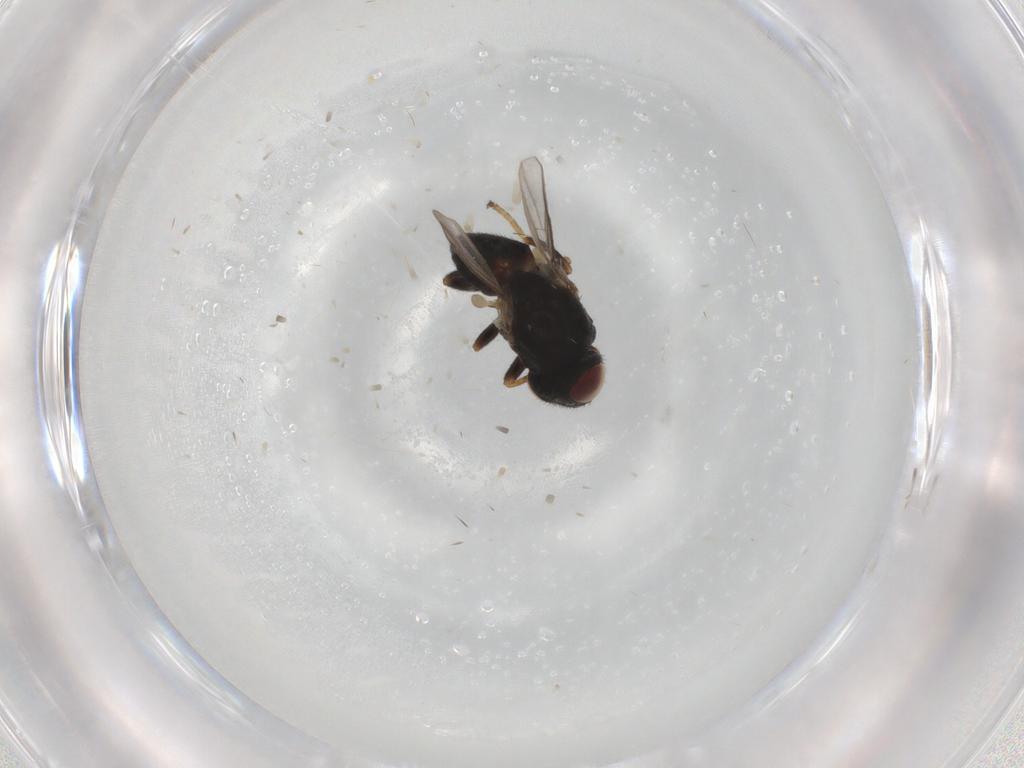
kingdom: Animalia
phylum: Arthropoda
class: Insecta
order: Diptera
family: Chloropidae
